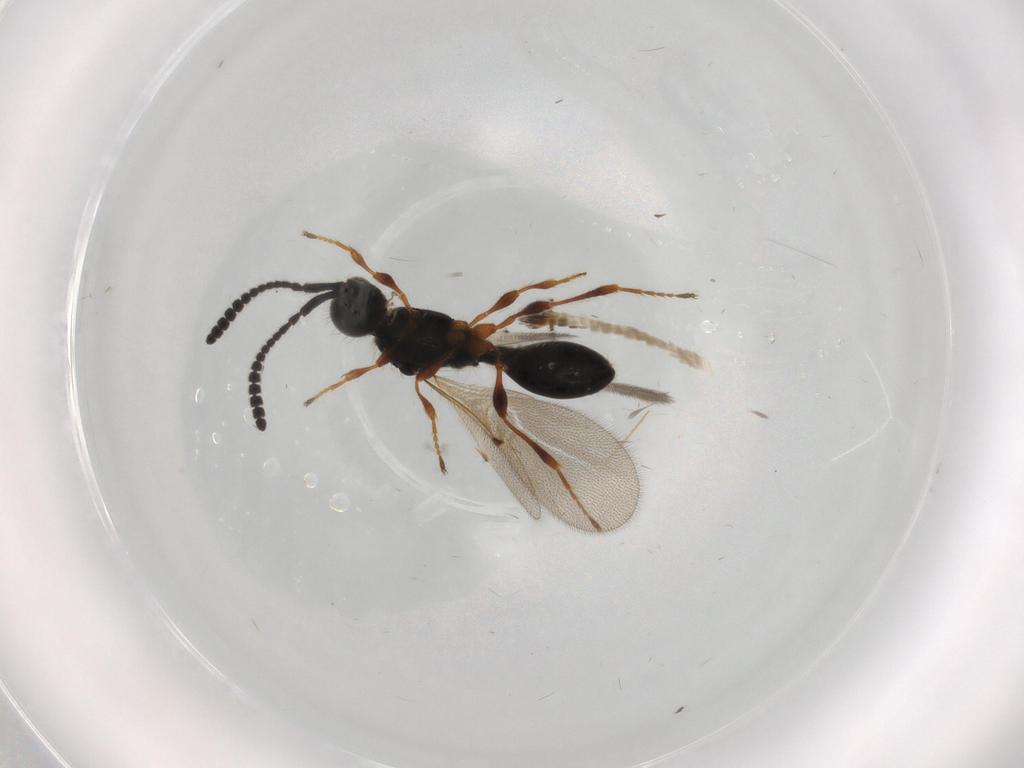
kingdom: Animalia
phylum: Arthropoda
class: Insecta
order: Hymenoptera
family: Diapriidae
